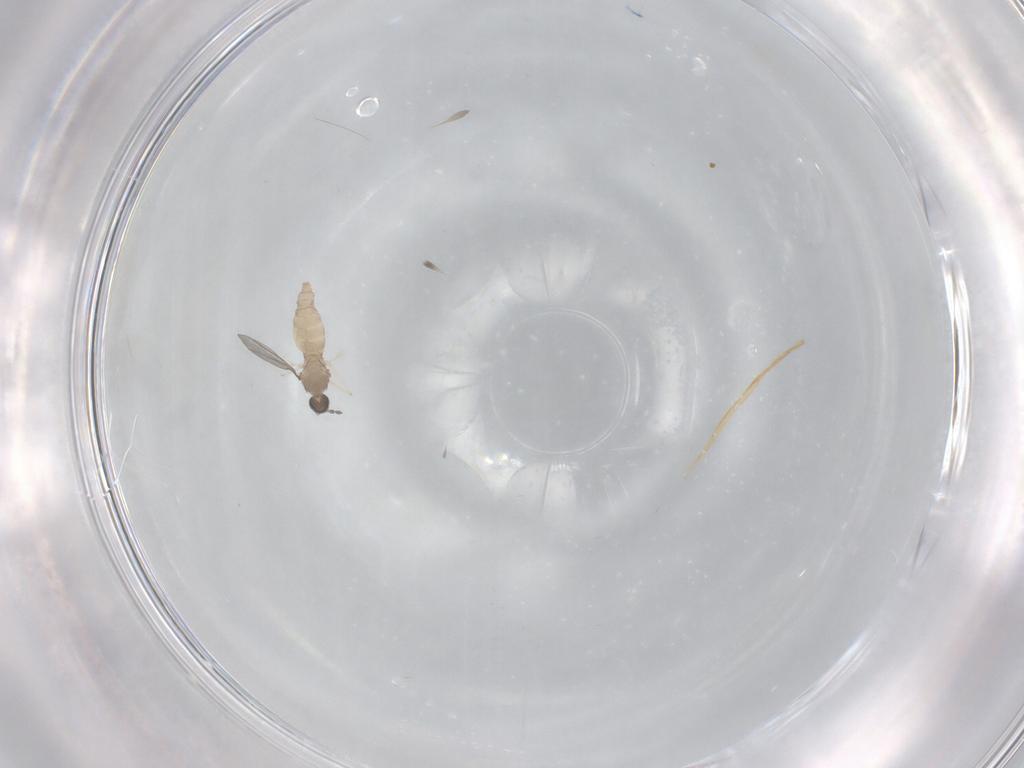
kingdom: Animalia
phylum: Arthropoda
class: Insecta
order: Diptera
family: Cecidomyiidae
